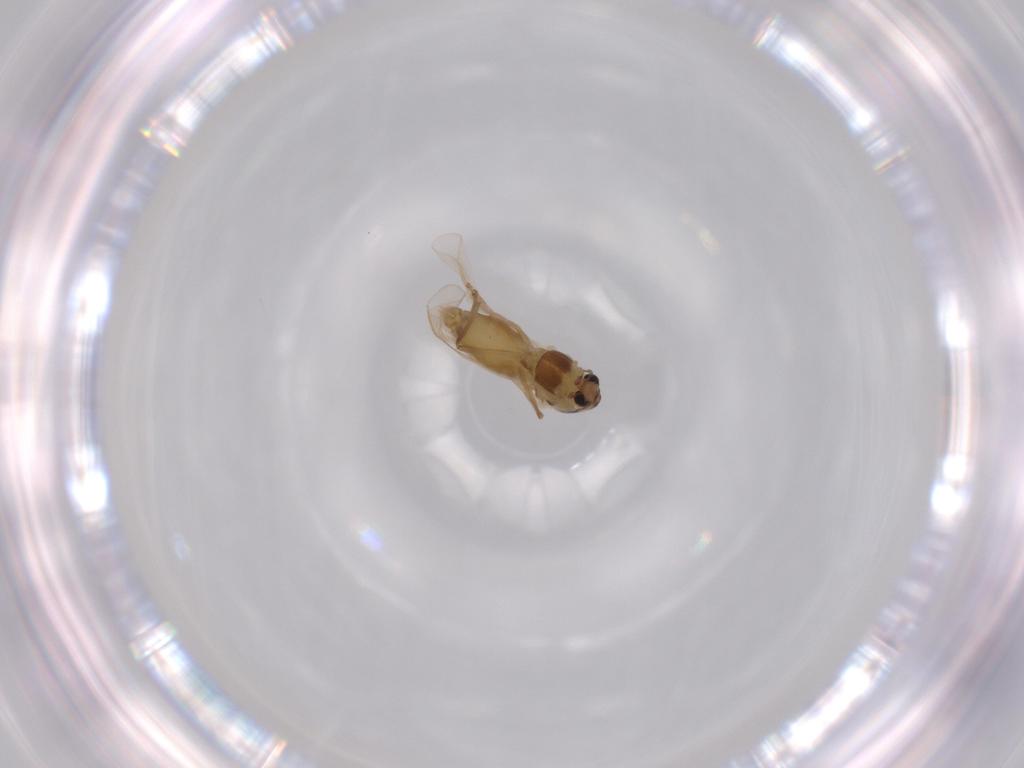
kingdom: Animalia
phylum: Arthropoda
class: Insecta
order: Diptera
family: Chironomidae
